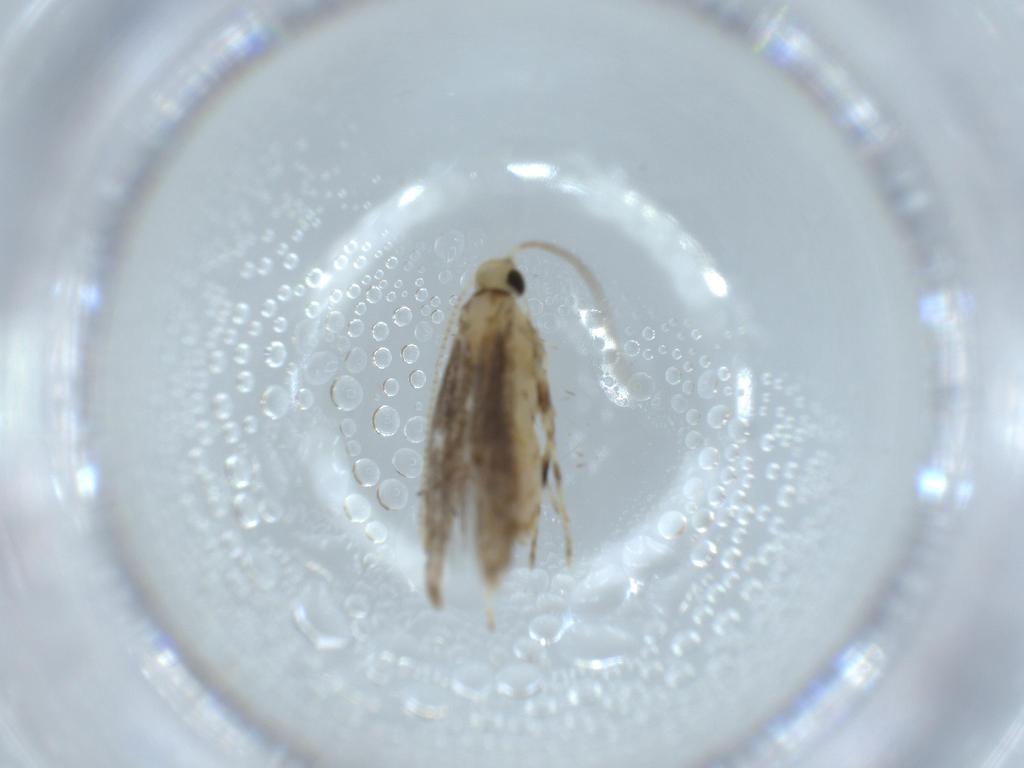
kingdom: Animalia
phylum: Arthropoda
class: Insecta
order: Lepidoptera
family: Gracillariidae
